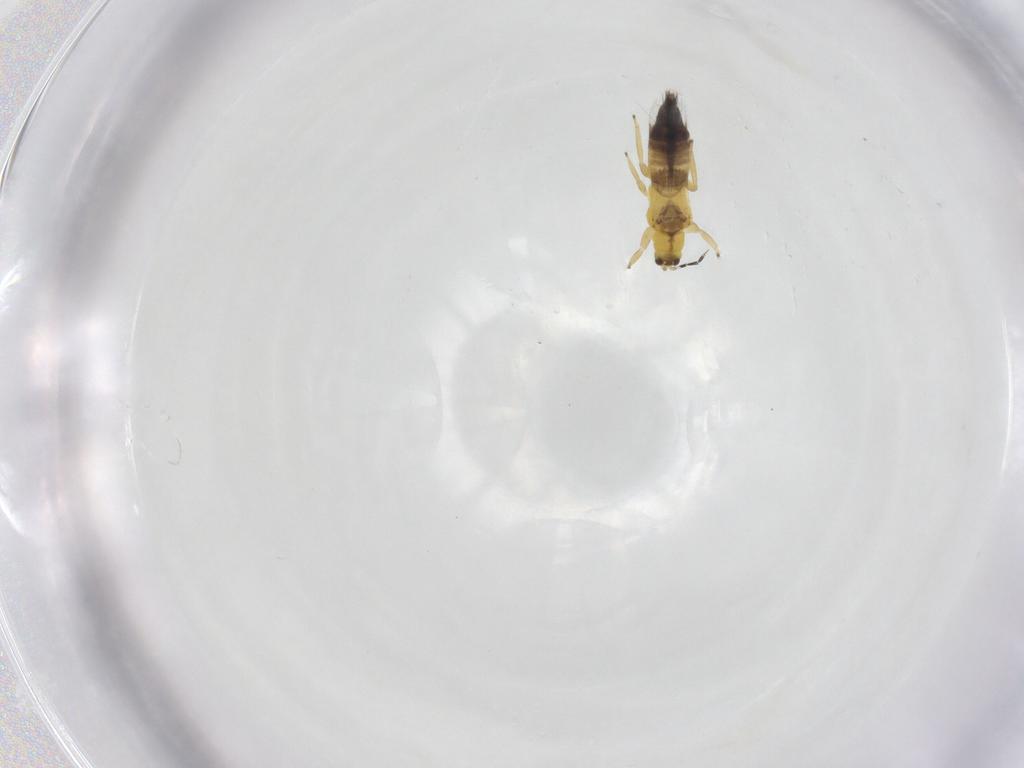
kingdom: Animalia
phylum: Arthropoda
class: Insecta
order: Thysanoptera
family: Aeolothripidae
